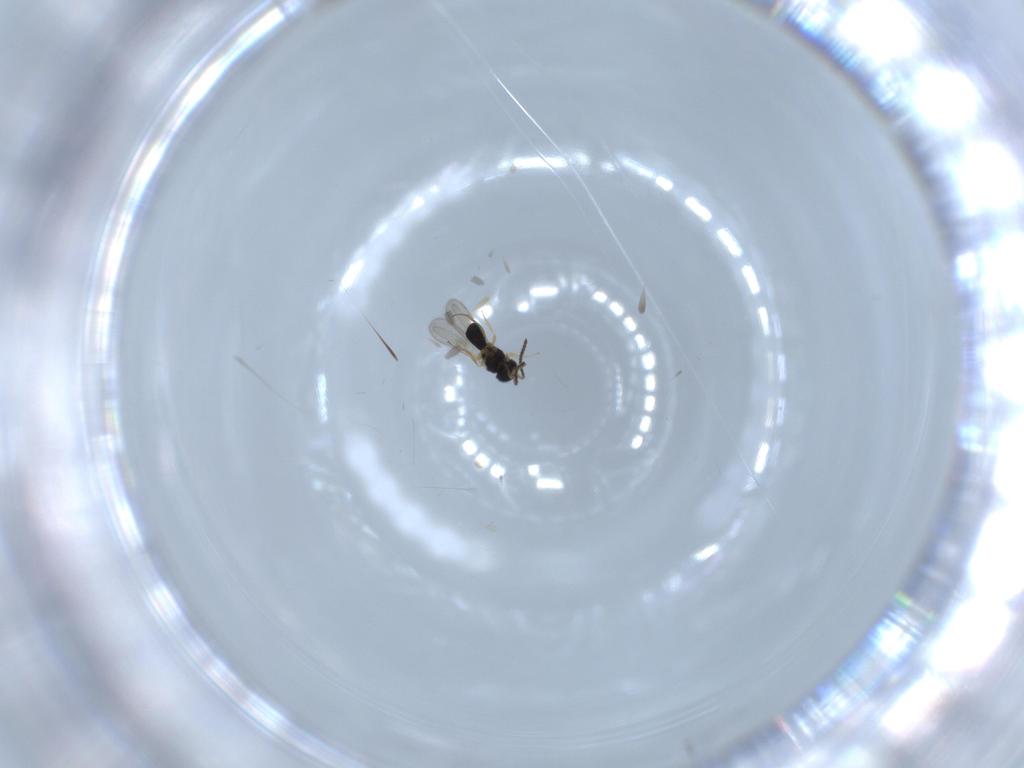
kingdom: Animalia
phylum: Arthropoda
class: Insecta
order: Hymenoptera
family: Scelionidae
